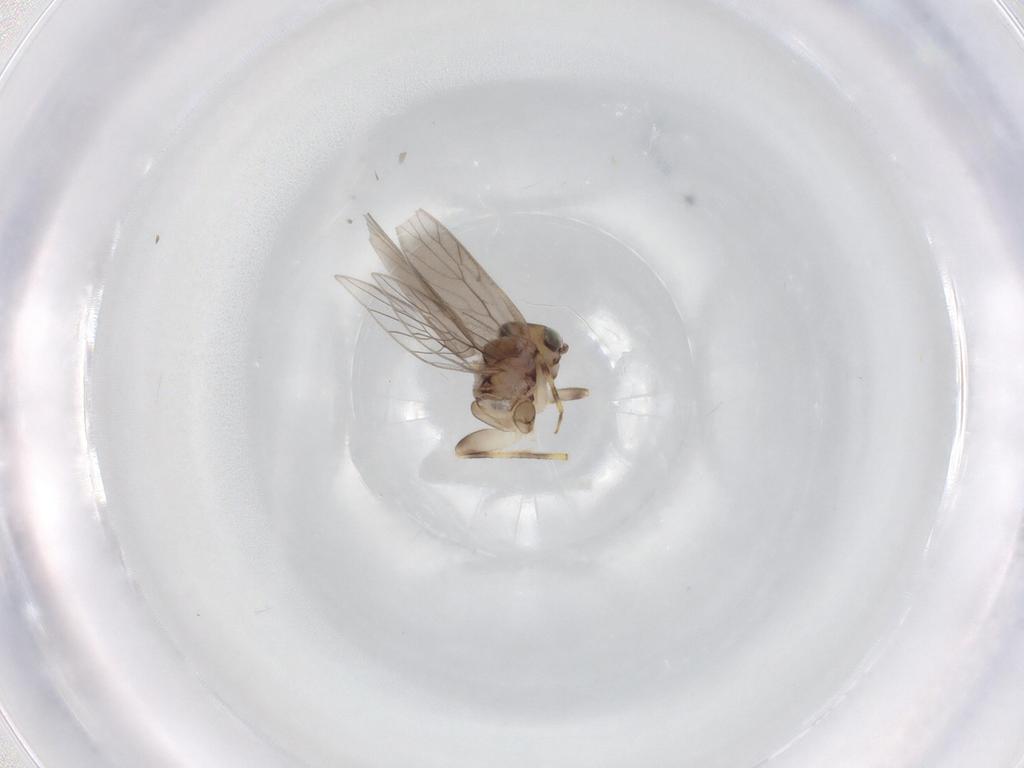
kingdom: Animalia
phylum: Arthropoda
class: Insecta
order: Psocodea
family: Lepidopsocidae
